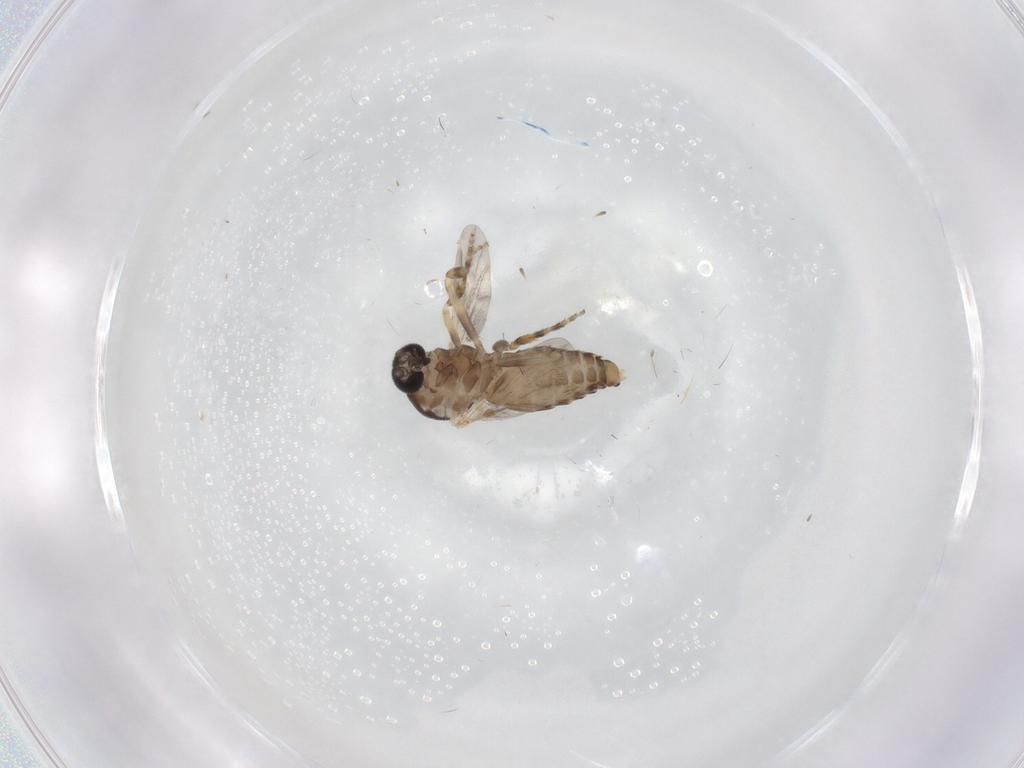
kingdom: Animalia
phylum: Arthropoda
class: Insecta
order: Diptera
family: Ceratopogonidae
